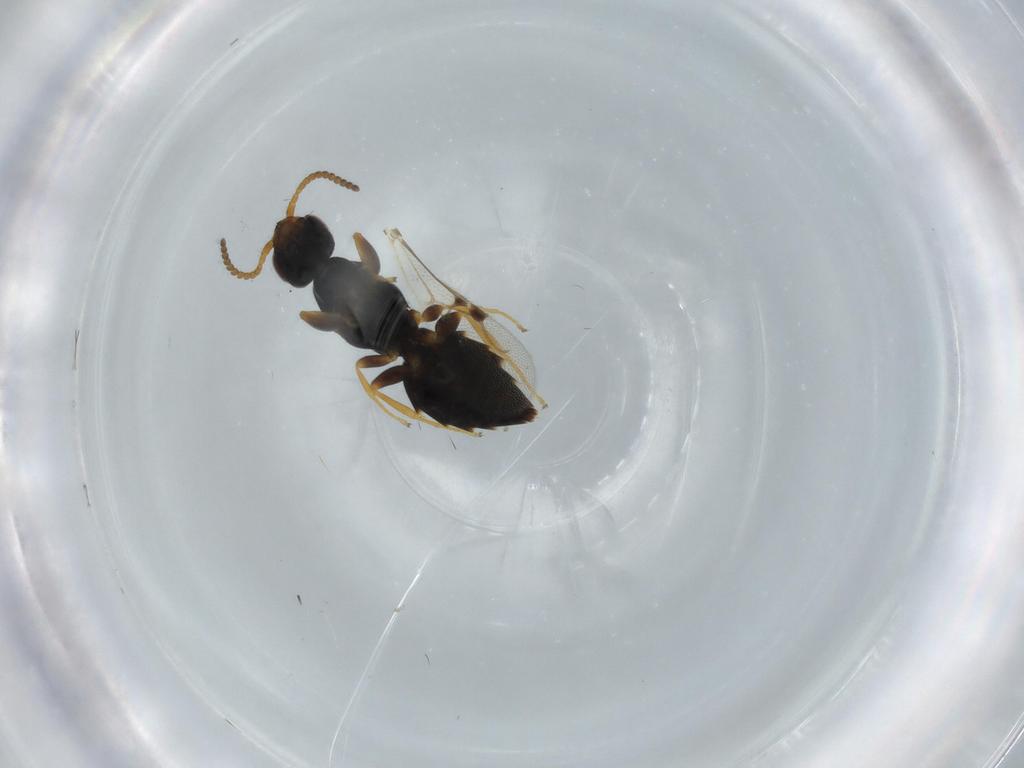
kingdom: Animalia
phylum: Arthropoda
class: Insecta
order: Hymenoptera
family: Bethylidae
